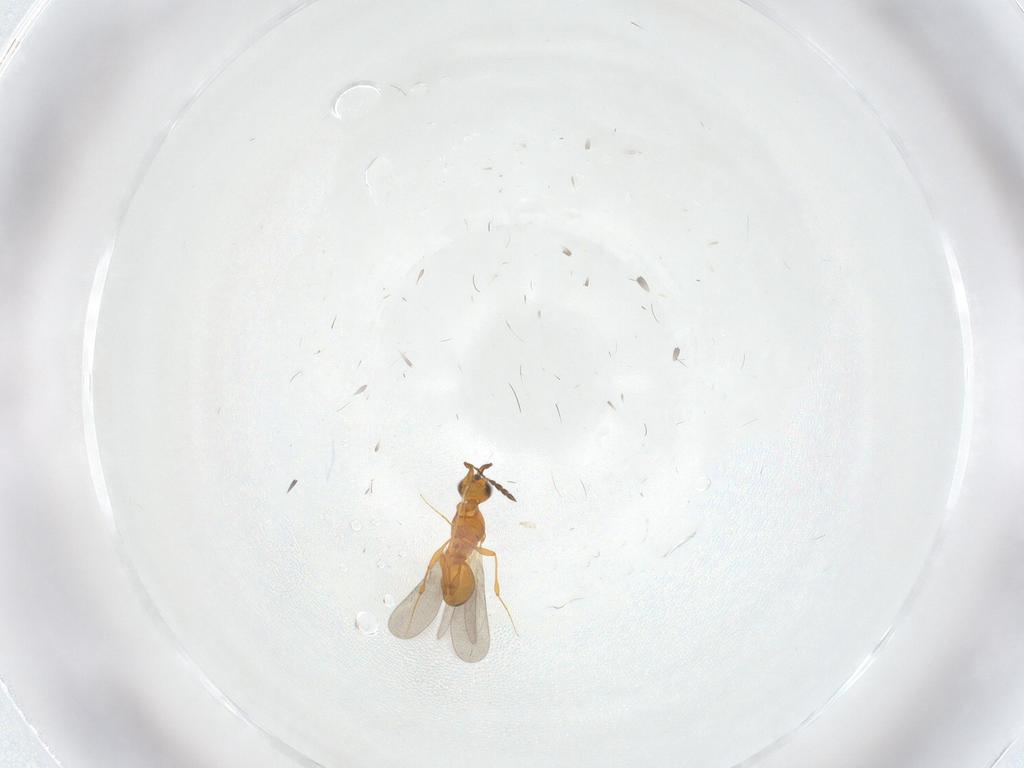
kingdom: Animalia
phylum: Arthropoda
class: Insecta
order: Hymenoptera
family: Platygastridae
